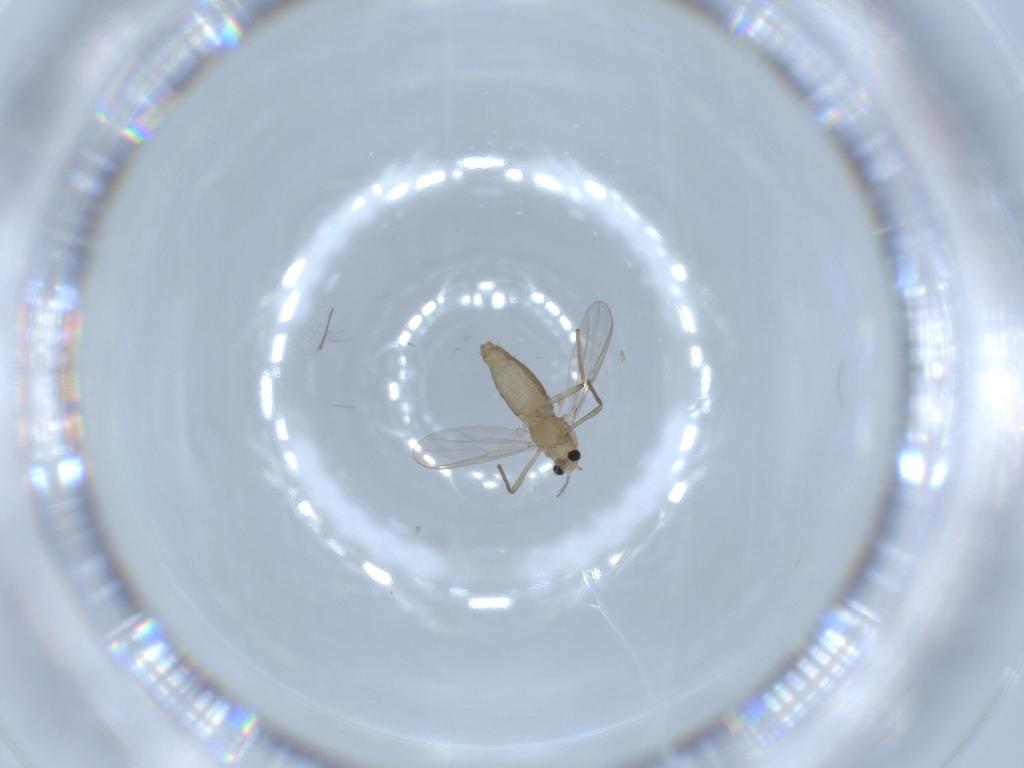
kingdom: Animalia
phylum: Arthropoda
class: Insecta
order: Diptera
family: Chironomidae
